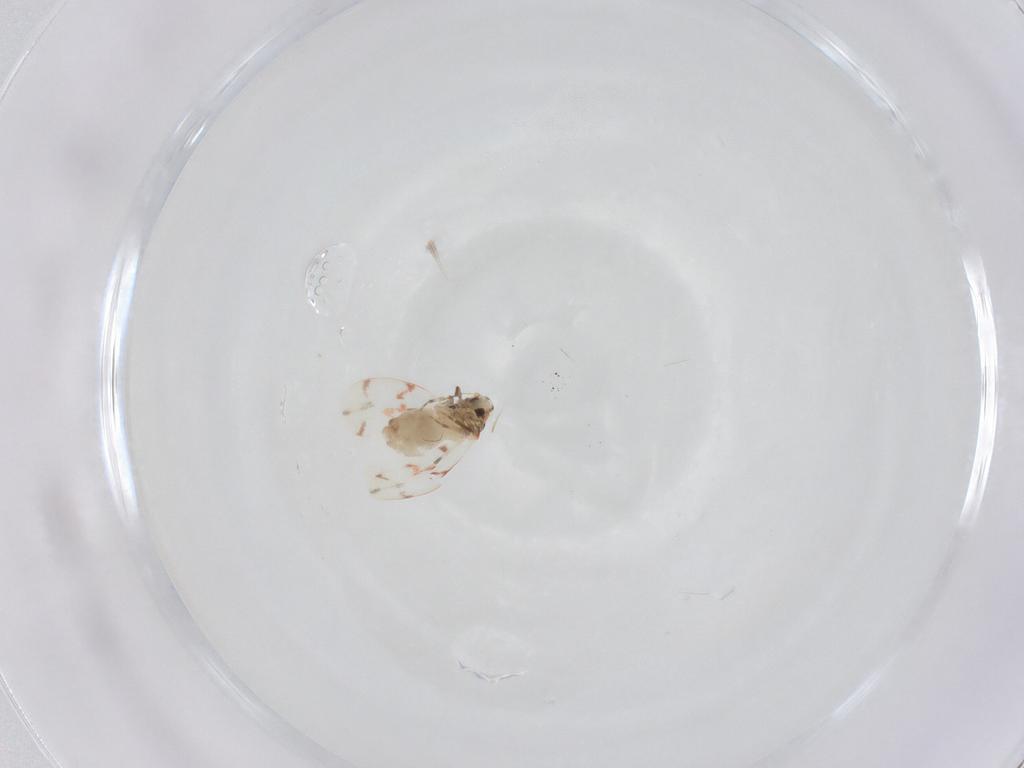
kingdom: Animalia
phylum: Arthropoda
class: Insecta
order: Hemiptera
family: Aleyrodidae
